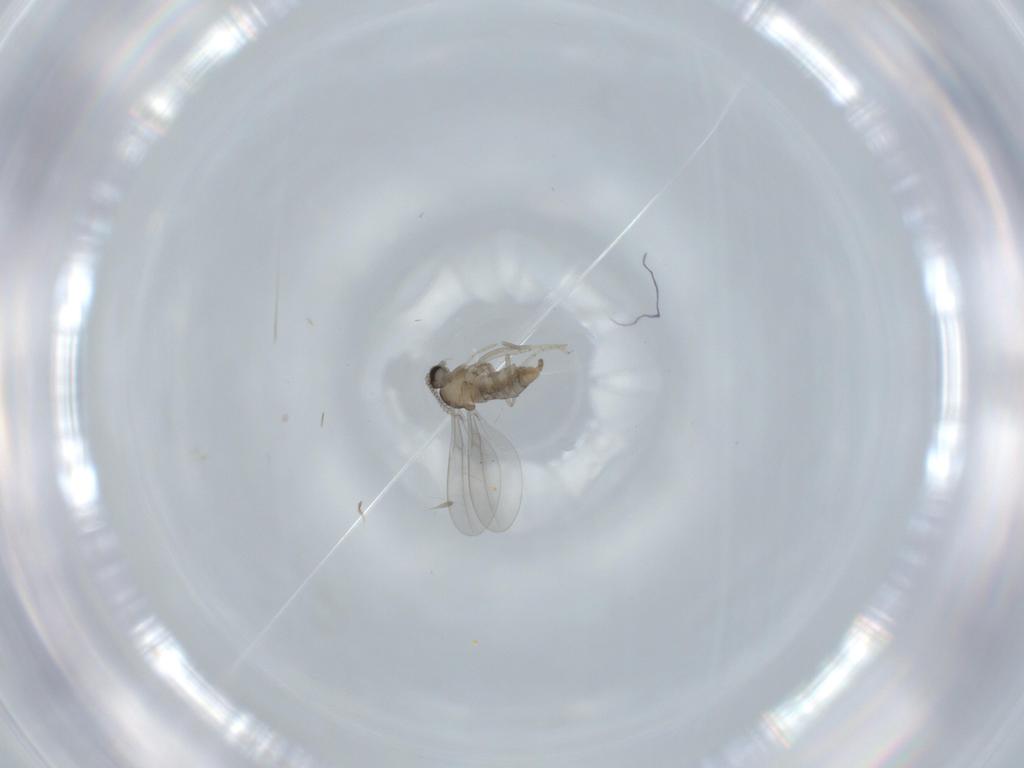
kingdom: Animalia
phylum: Arthropoda
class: Insecta
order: Diptera
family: Cecidomyiidae
